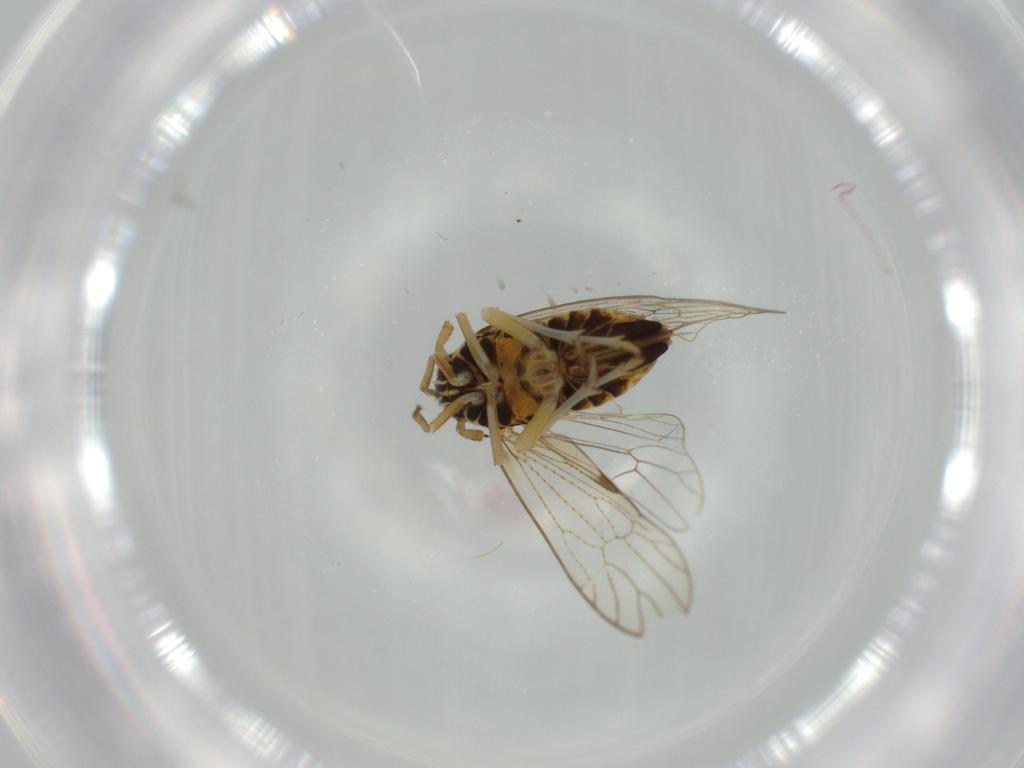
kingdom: Animalia
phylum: Arthropoda
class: Insecta
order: Hemiptera
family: Cicadellidae
